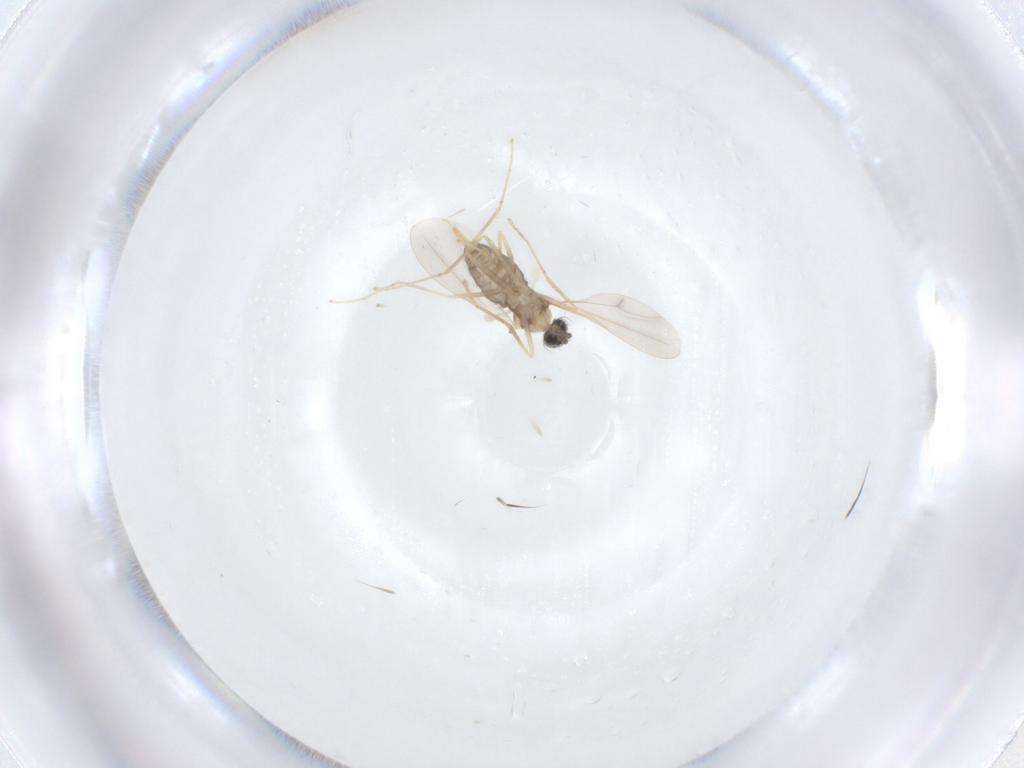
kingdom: Animalia
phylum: Arthropoda
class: Insecta
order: Diptera
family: Cecidomyiidae
